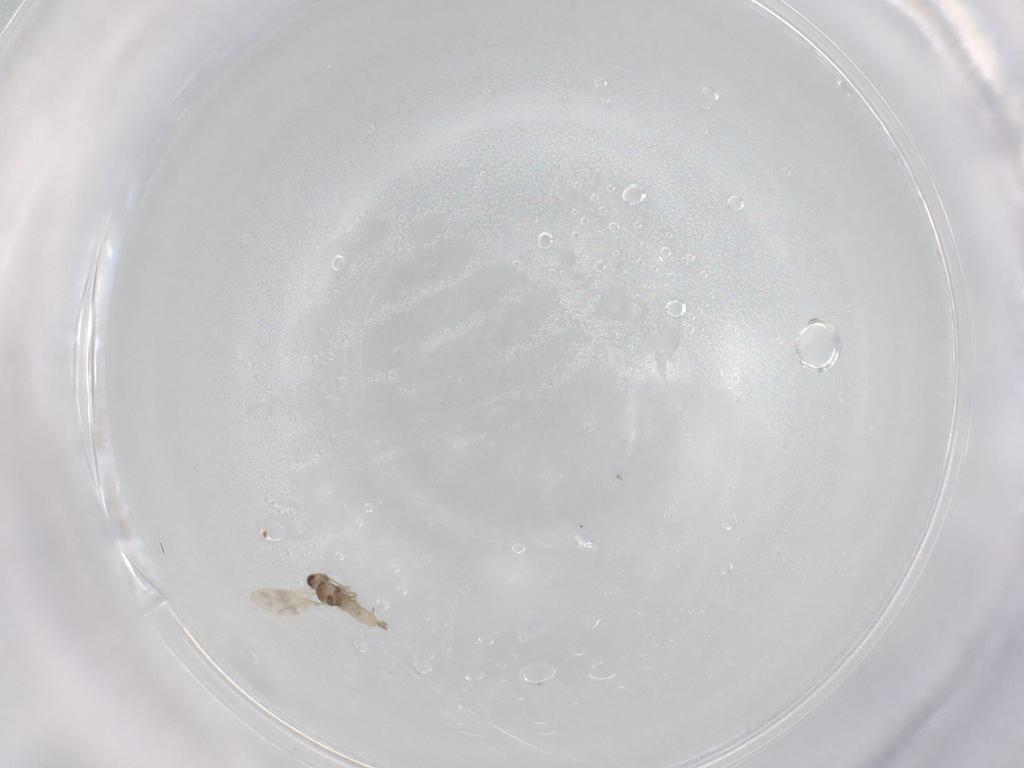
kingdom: Animalia
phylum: Arthropoda
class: Insecta
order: Diptera
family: Cecidomyiidae
